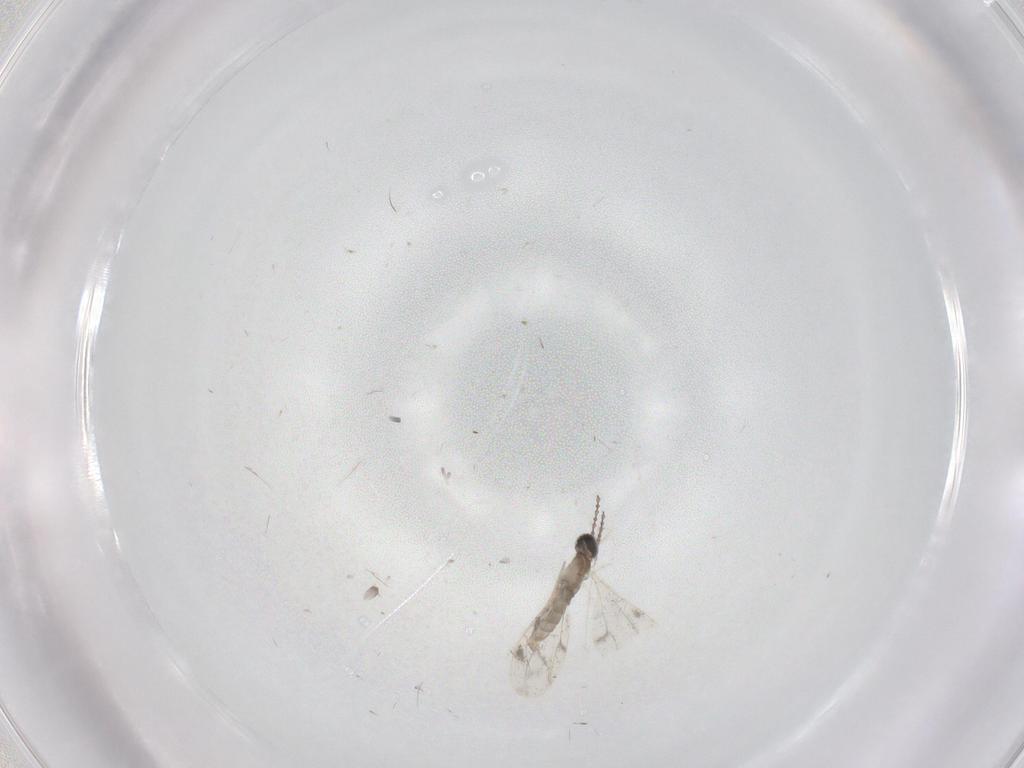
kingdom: Animalia
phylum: Arthropoda
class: Insecta
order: Diptera
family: Cecidomyiidae
